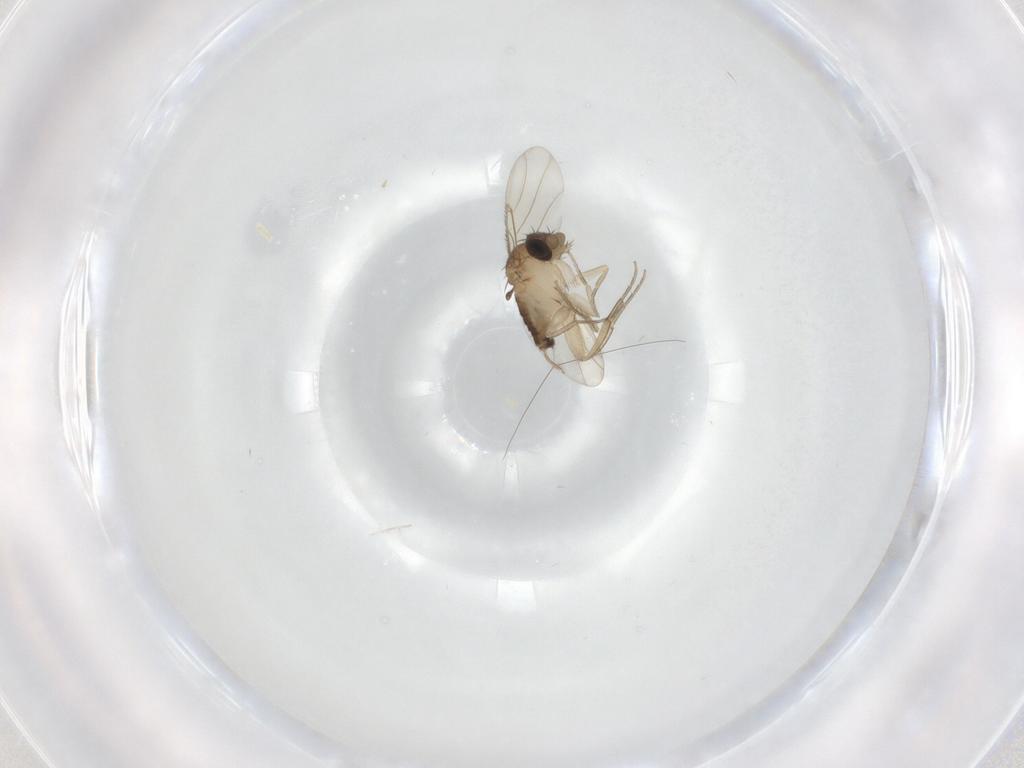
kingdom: Animalia
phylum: Arthropoda
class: Insecta
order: Diptera
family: Phoridae
